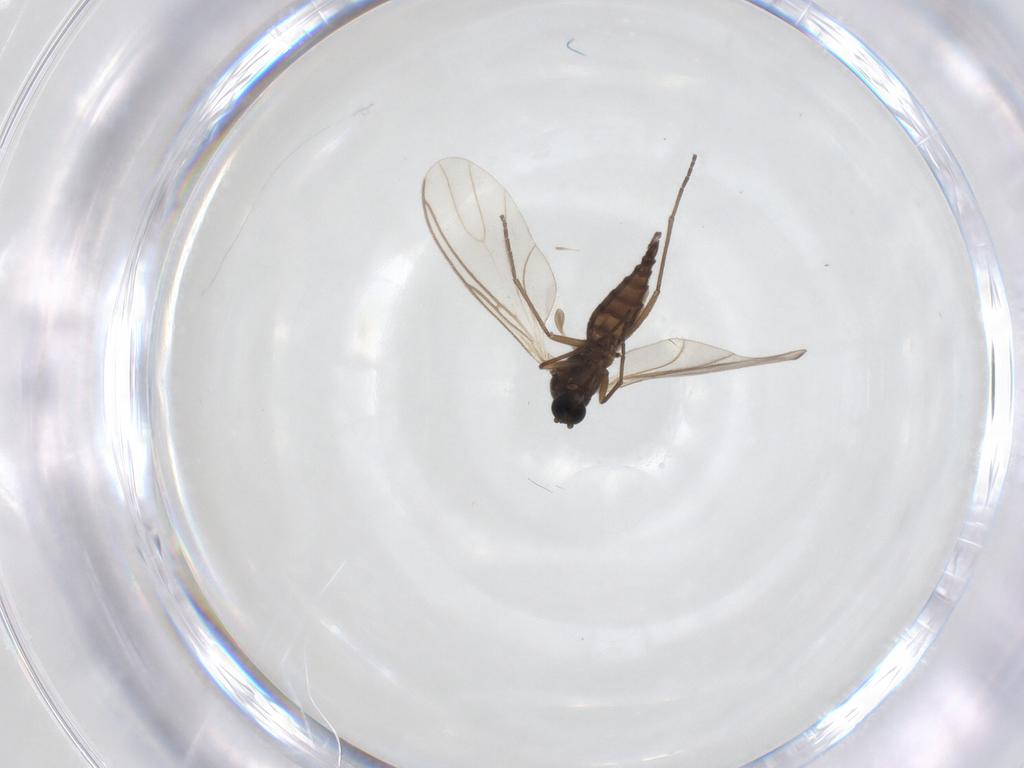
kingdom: Animalia
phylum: Arthropoda
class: Insecta
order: Diptera
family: Sciaridae
